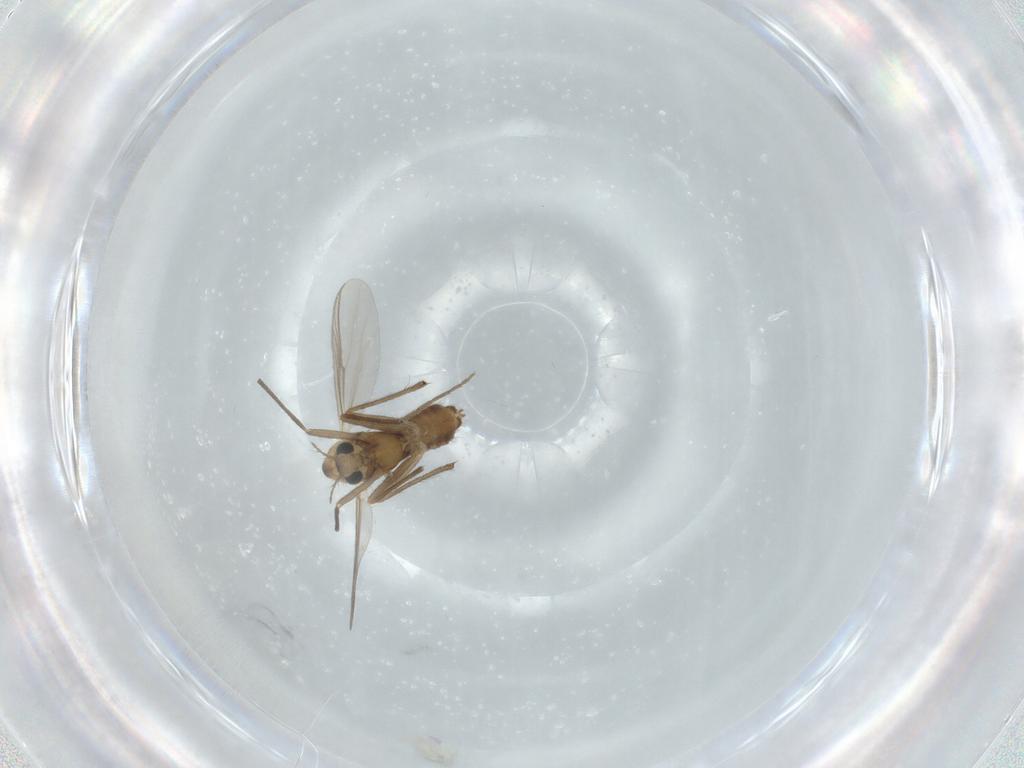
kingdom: Animalia
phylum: Arthropoda
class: Insecta
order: Diptera
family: Chironomidae
